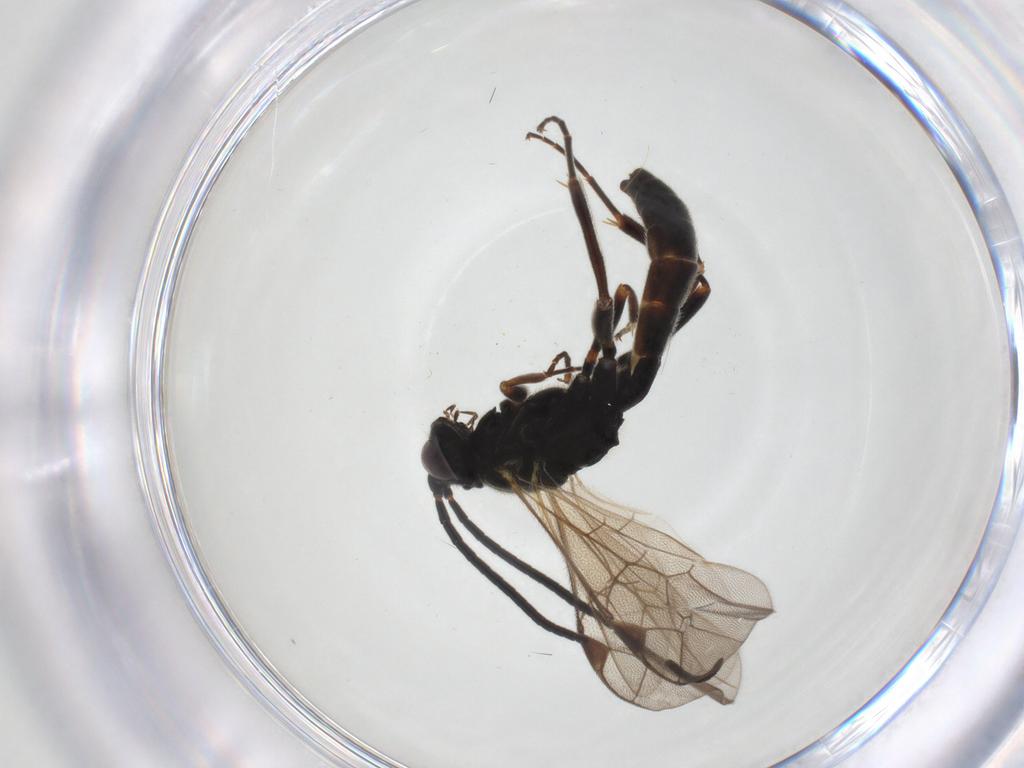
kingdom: Animalia
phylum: Arthropoda
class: Insecta
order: Hymenoptera
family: Ichneumonidae
